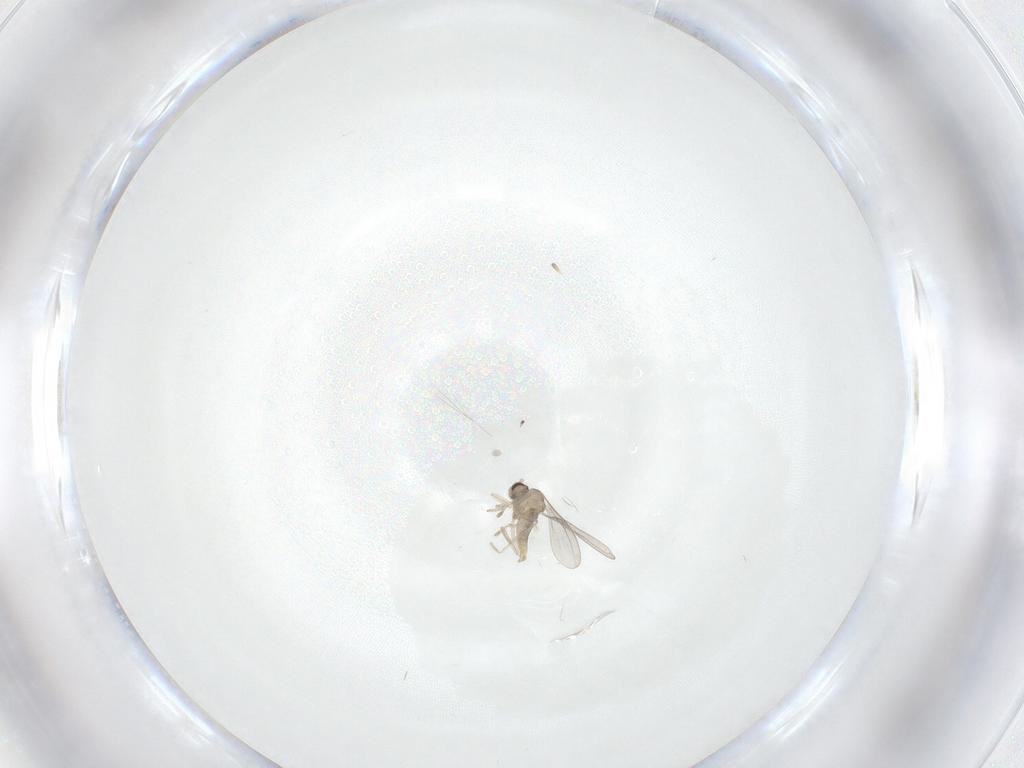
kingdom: Animalia
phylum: Arthropoda
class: Insecta
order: Diptera
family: Cecidomyiidae
